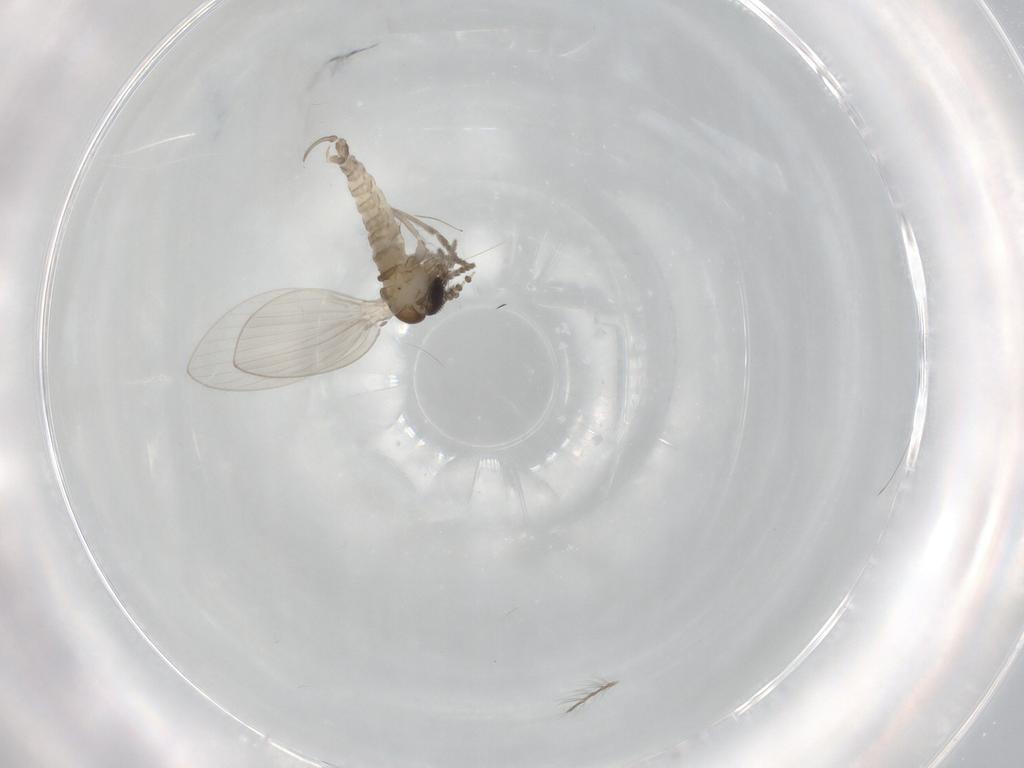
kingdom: Animalia
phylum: Arthropoda
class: Insecta
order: Diptera
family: Psychodidae
